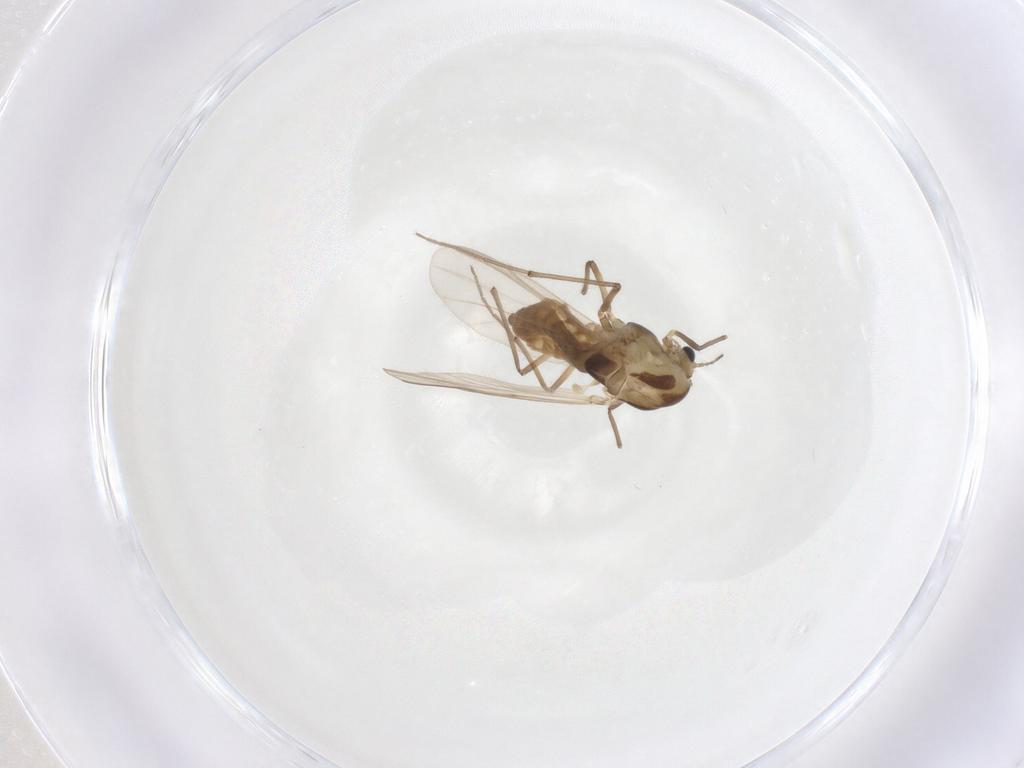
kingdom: Animalia
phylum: Arthropoda
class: Insecta
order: Diptera
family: Chironomidae
